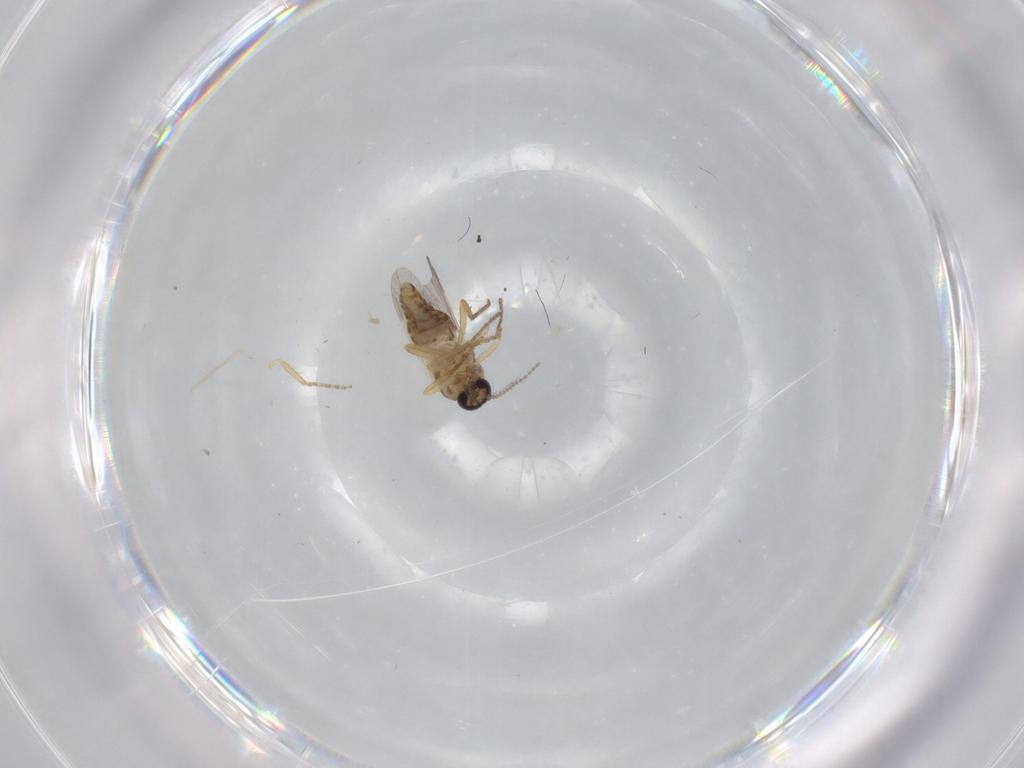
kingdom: Animalia
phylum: Arthropoda
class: Insecta
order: Diptera
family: Ceratopogonidae
